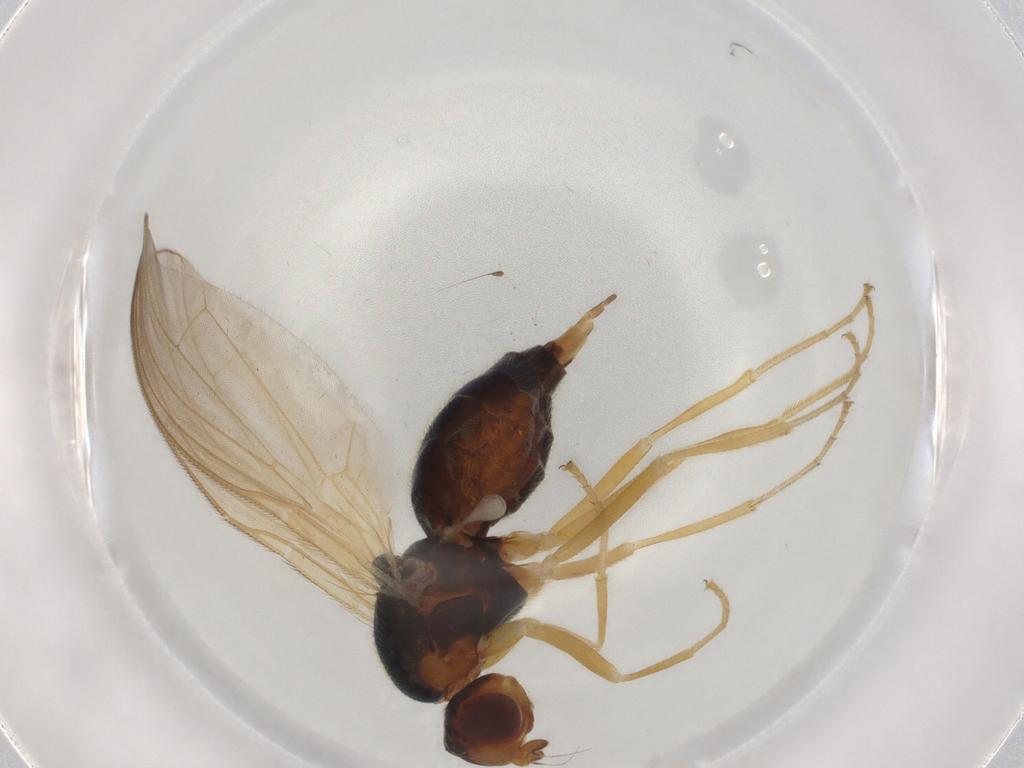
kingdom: Animalia
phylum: Arthropoda
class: Insecta
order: Diptera
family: Hybotidae
